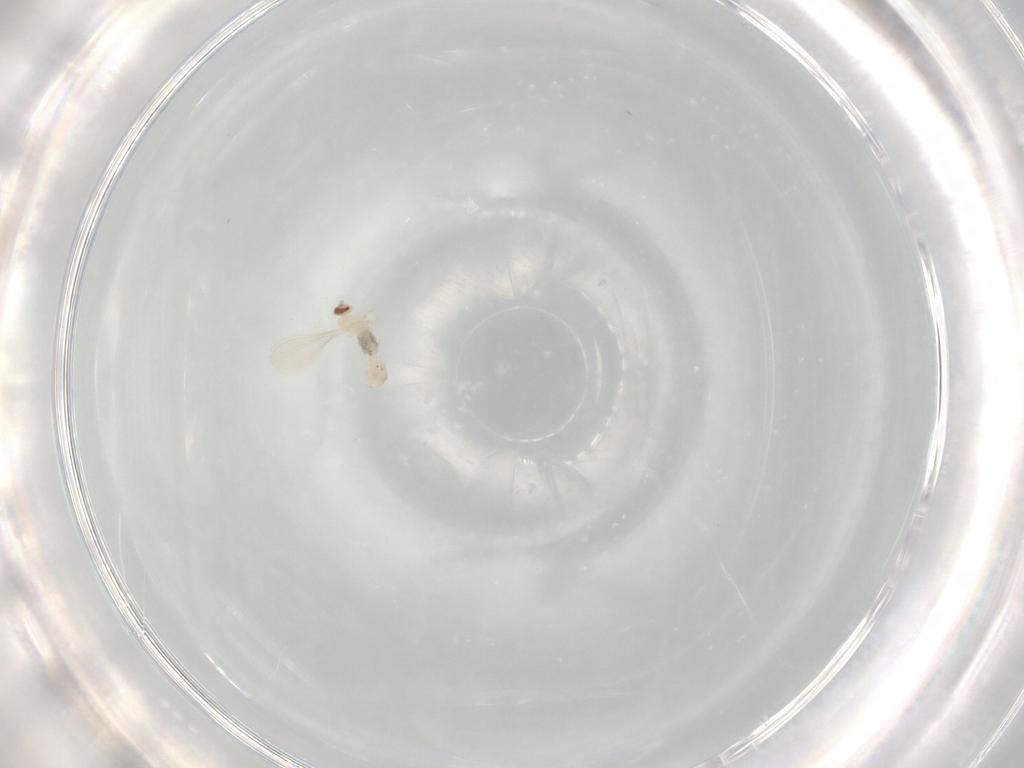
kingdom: Animalia
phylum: Arthropoda
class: Insecta
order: Diptera
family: Cecidomyiidae
